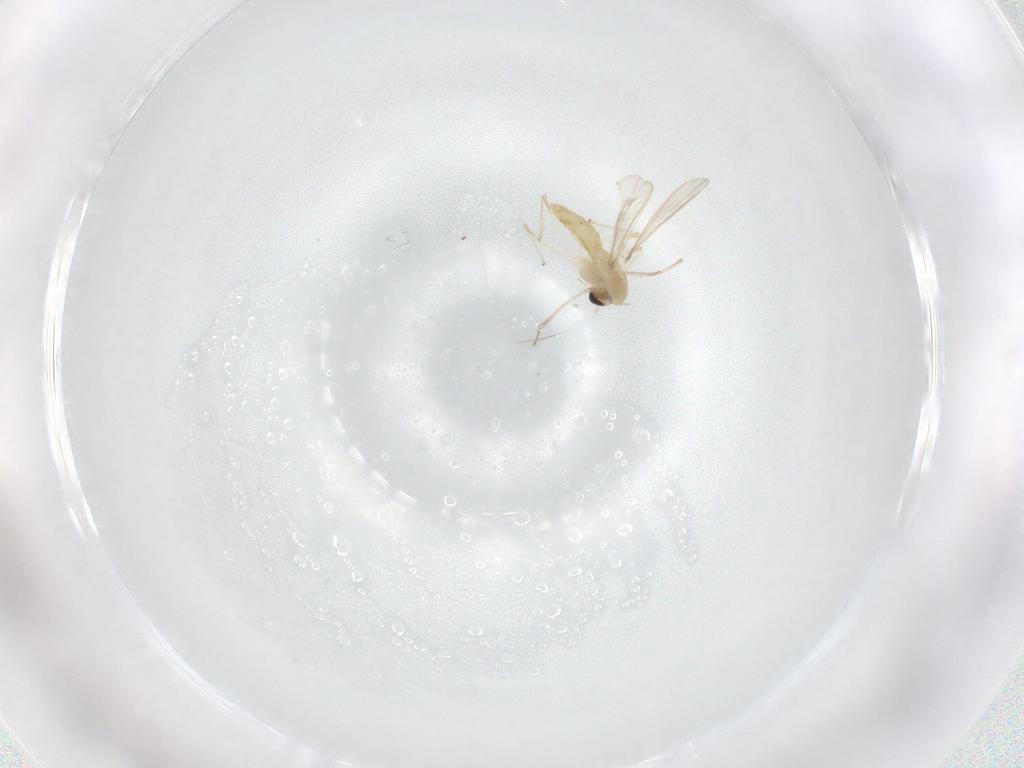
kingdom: Animalia
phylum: Arthropoda
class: Insecta
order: Diptera
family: Chironomidae
